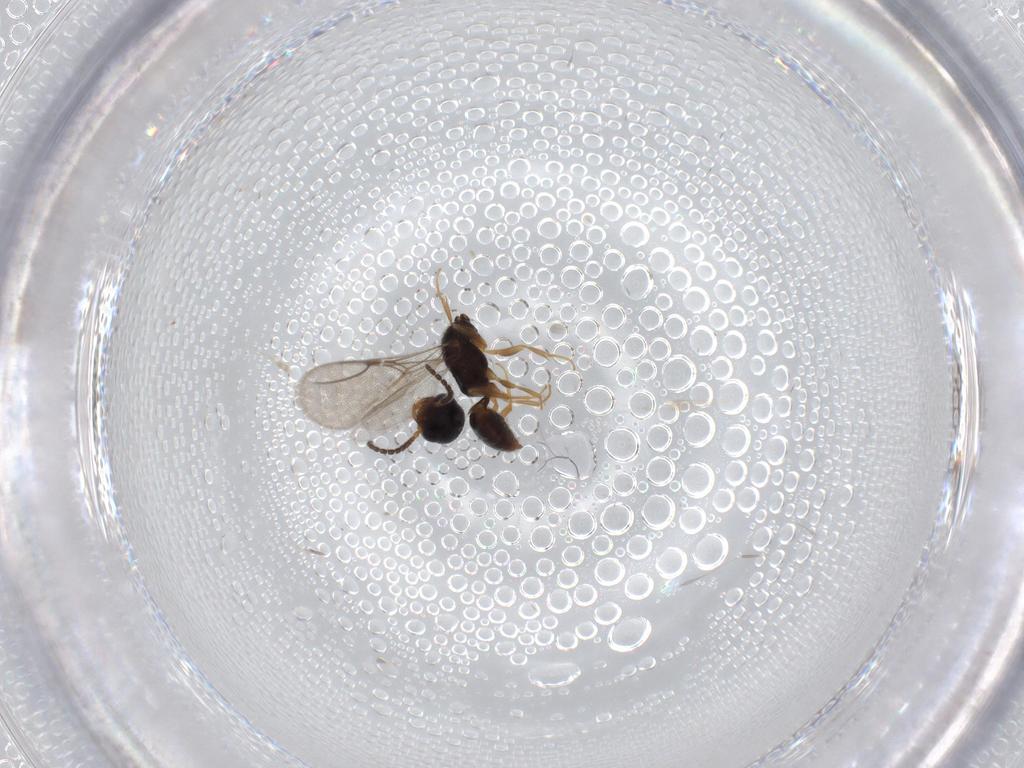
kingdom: Animalia
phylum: Arthropoda
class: Insecta
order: Hymenoptera
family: Bethylidae
